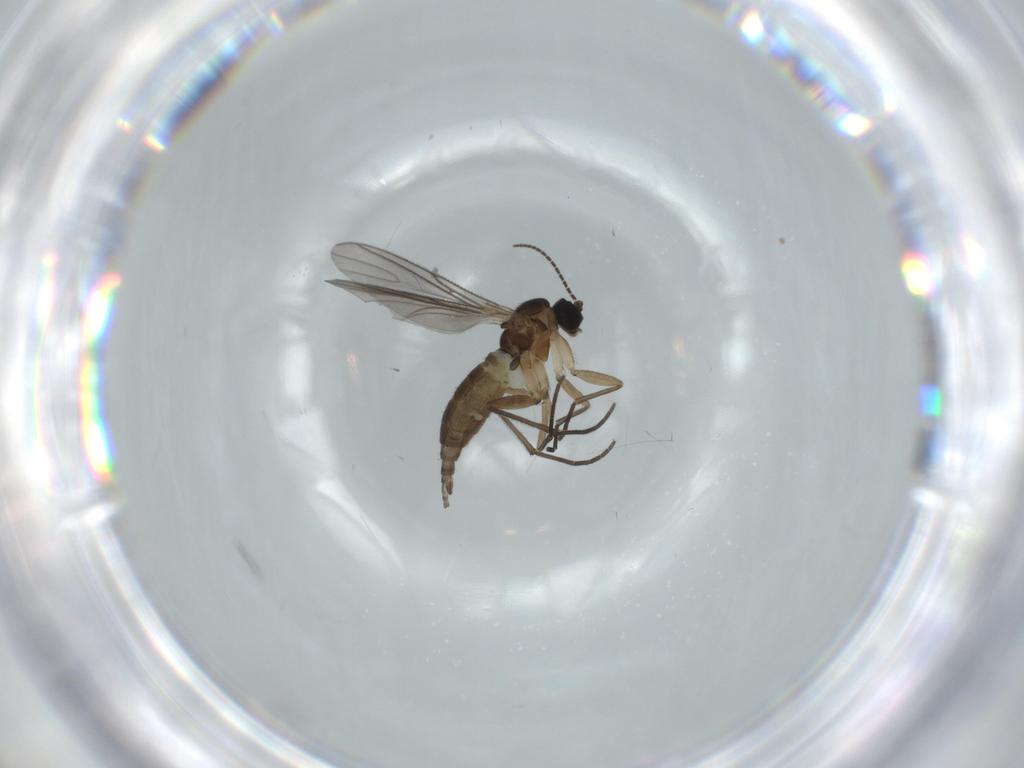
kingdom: Animalia
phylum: Arthropoda
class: Insecta
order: Diptera
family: Sciaridae
